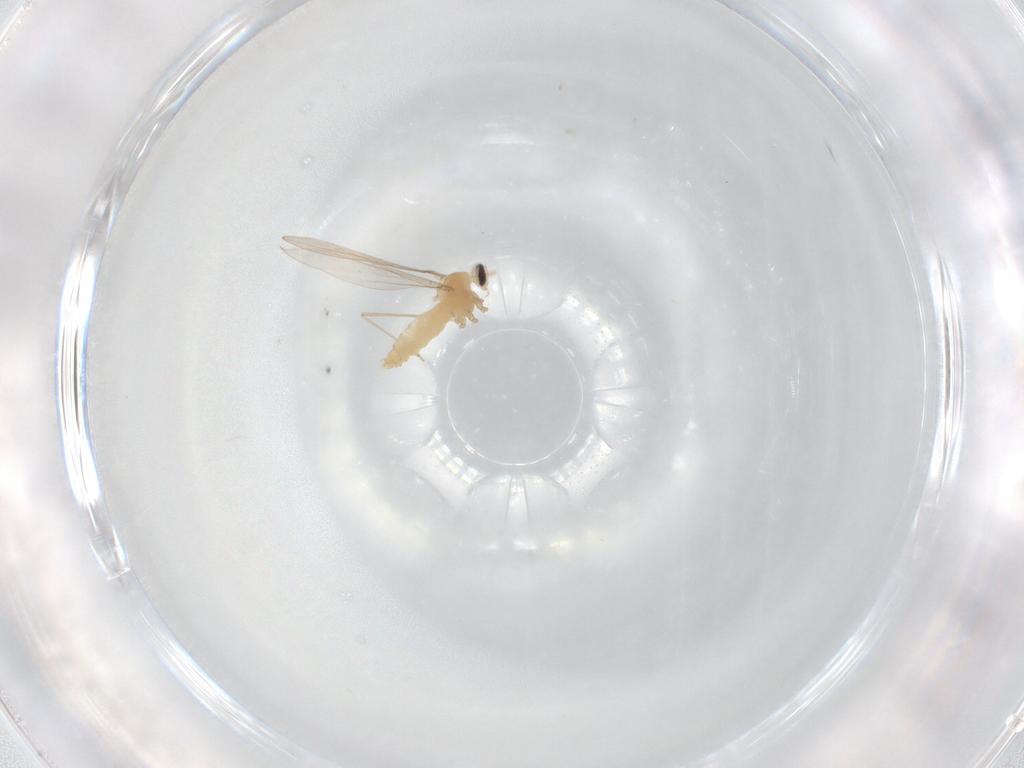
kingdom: Animalia
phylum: Arthropoda
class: Insecta
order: Diptera
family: Cecidomyiidae
